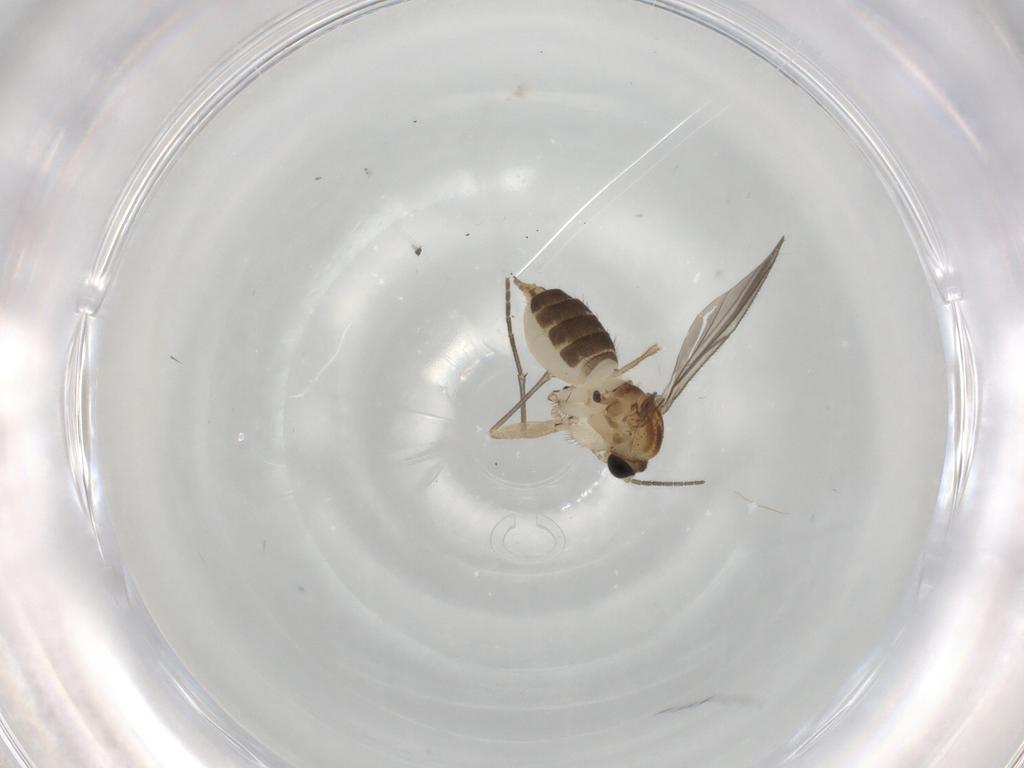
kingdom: Animalia
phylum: Arthropoda
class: Insecta
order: Diptera
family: Sciaridae
